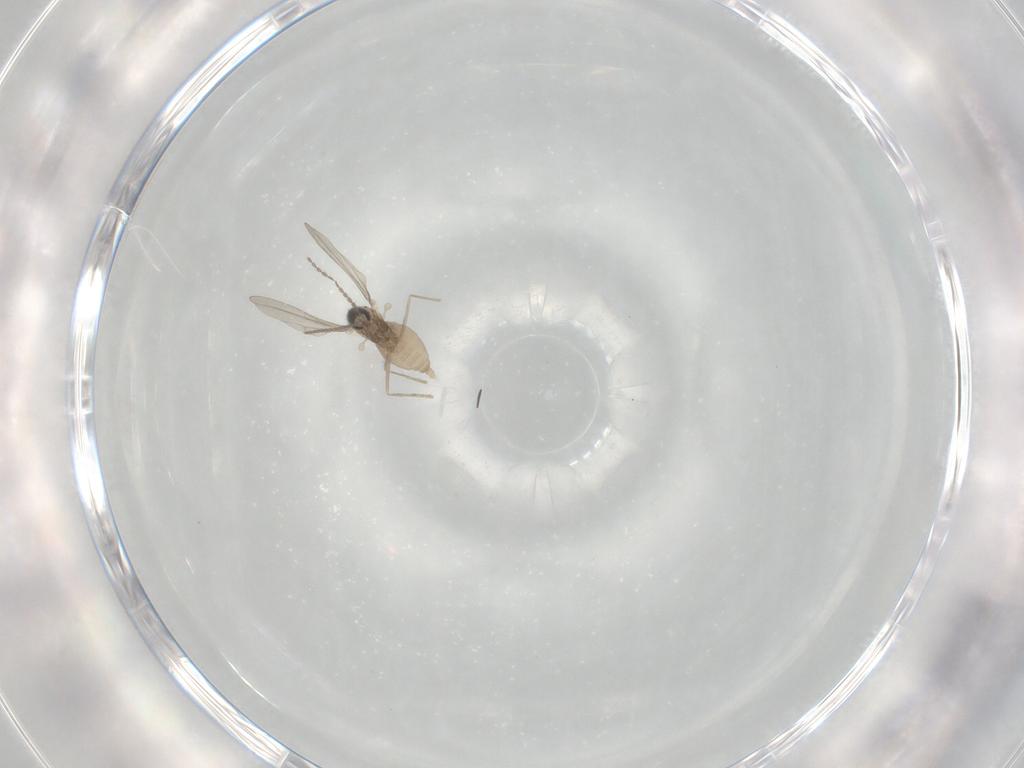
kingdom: Animalia
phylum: Arthropoda
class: Insecta
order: Diptera
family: Cecidomyiidae
